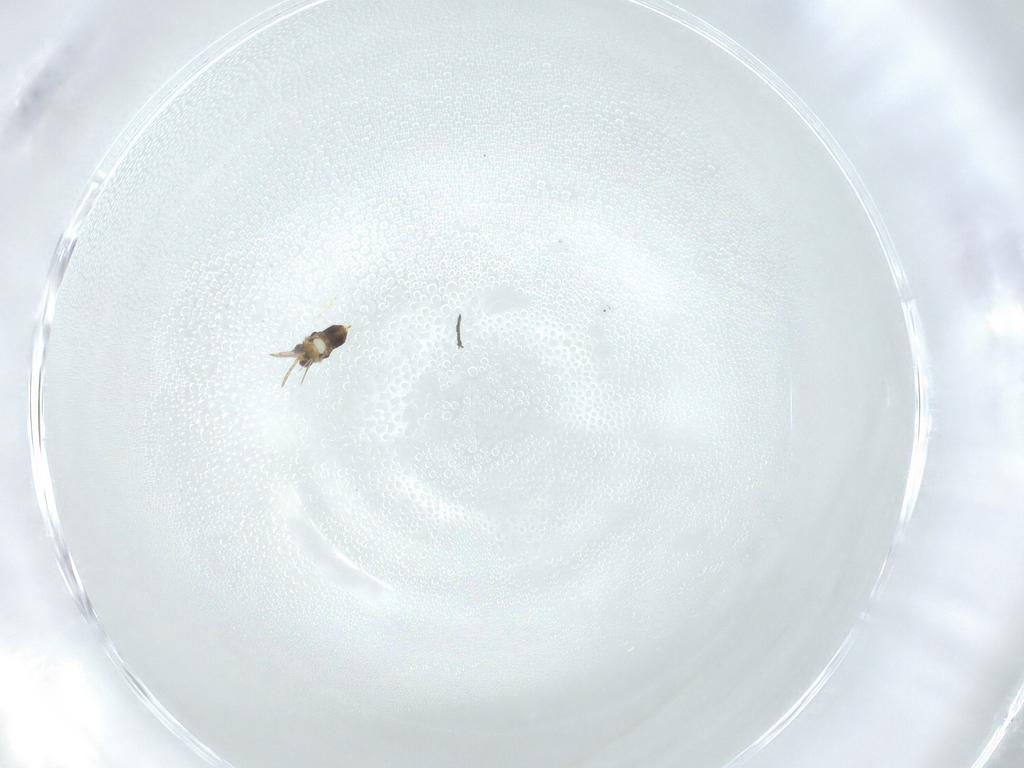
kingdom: Animalia
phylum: Arthropoda
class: Insecta
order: Hymenoptera
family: Aphelinidae
